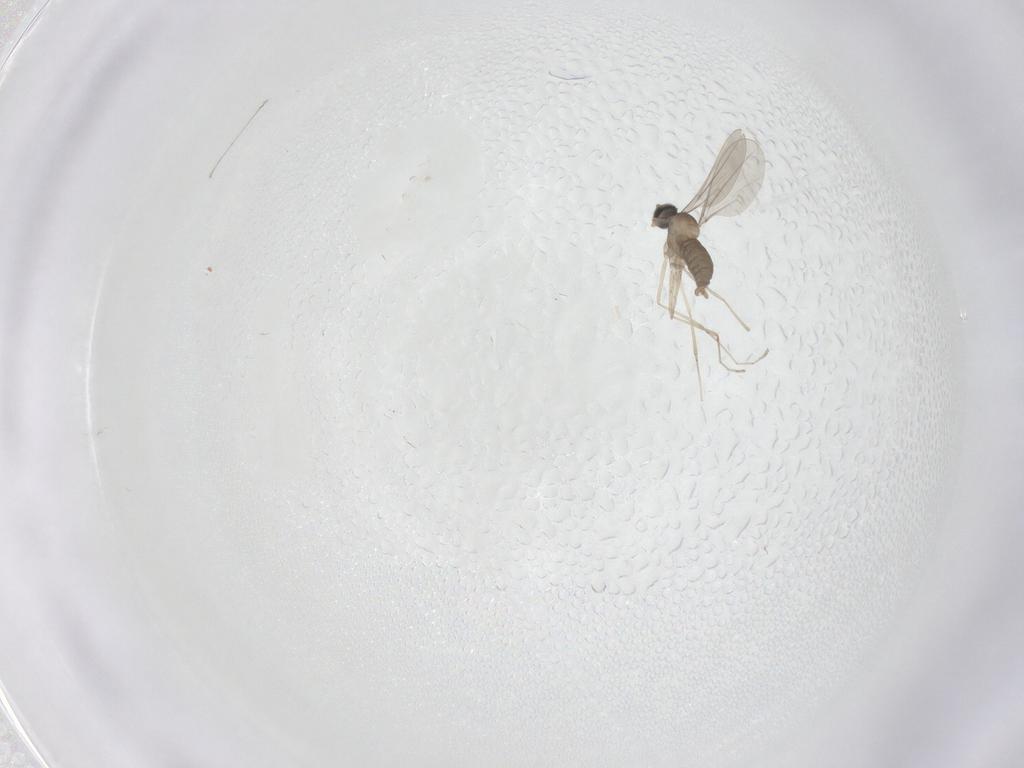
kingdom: Animalia
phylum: Arthropoda
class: Insecta
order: Diptera
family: Cecidomyiidae
